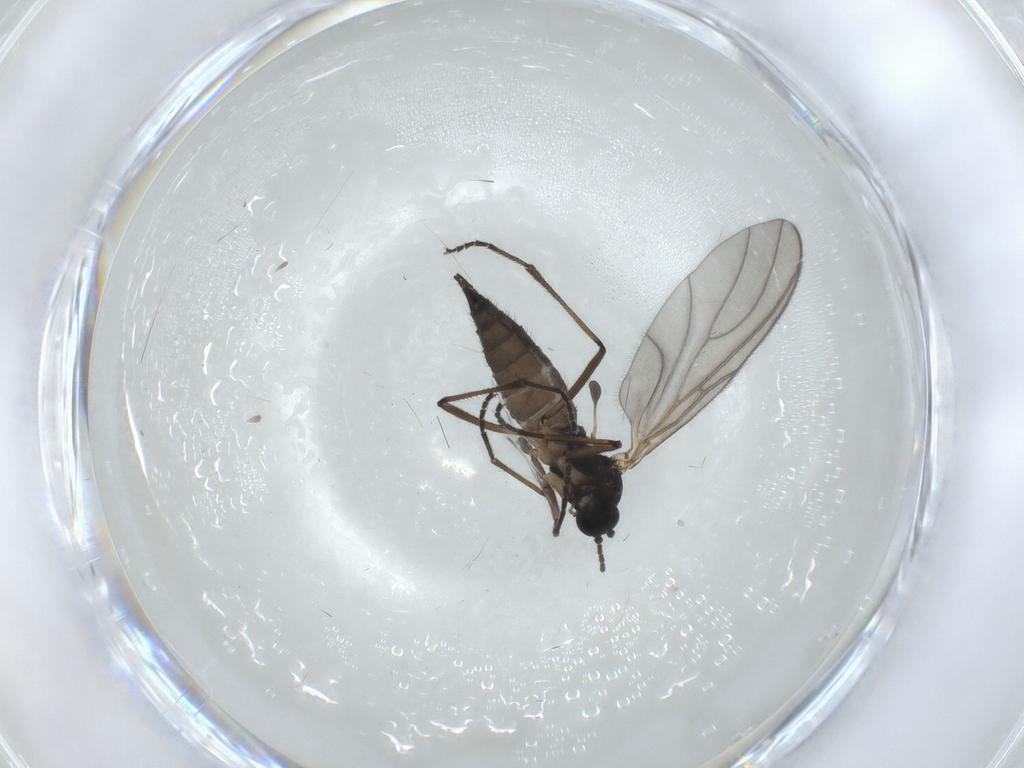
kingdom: Animalia
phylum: Arthropoda
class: Insecta
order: Diptera
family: Sciaridae
